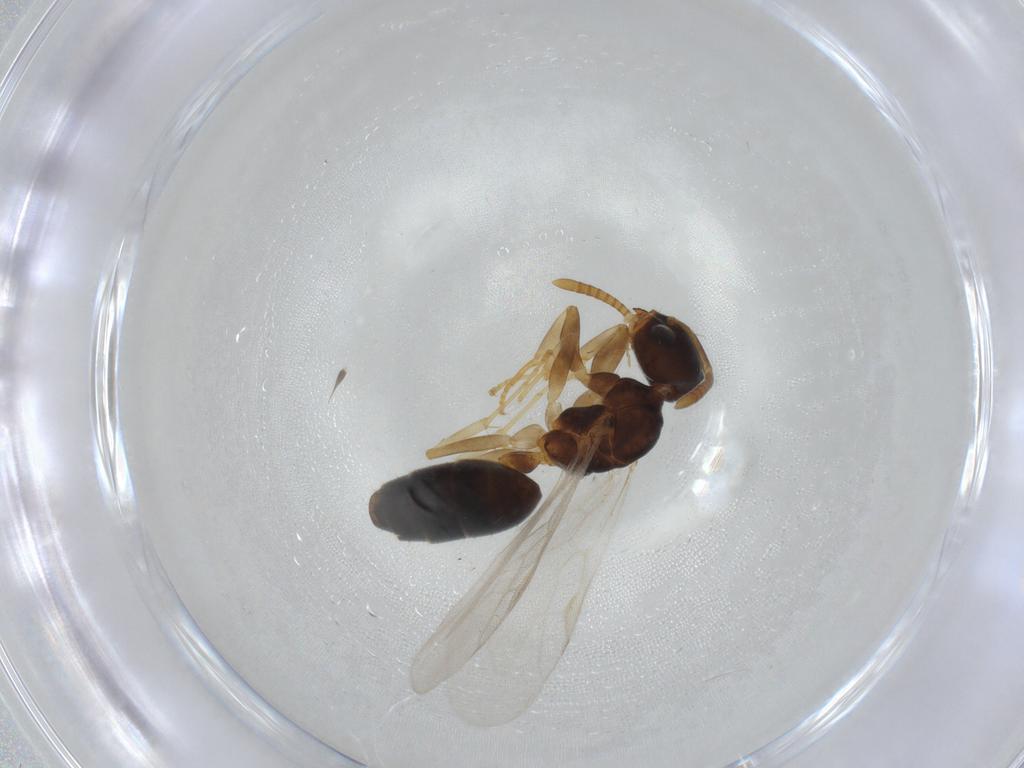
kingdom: Animalia
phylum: Arthropoda
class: Insecta
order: Hymenoptera
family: Formicidae
